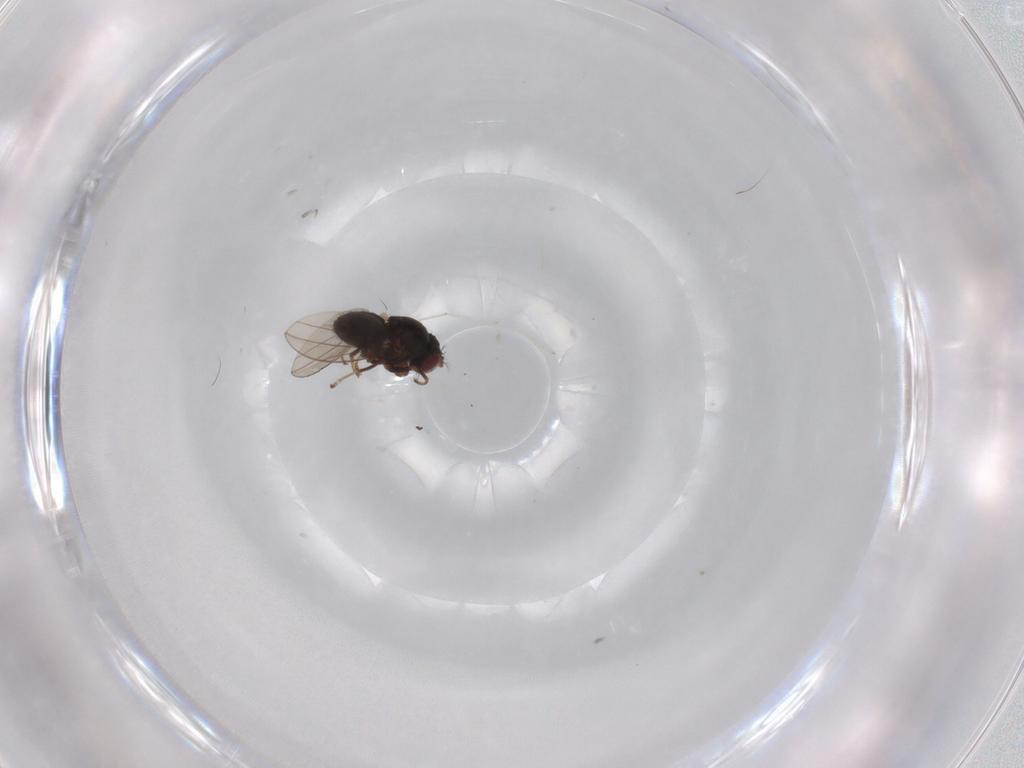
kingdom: Animalia
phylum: Arthropoda
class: Insecta
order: Diptera
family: Cecidomyiidae
